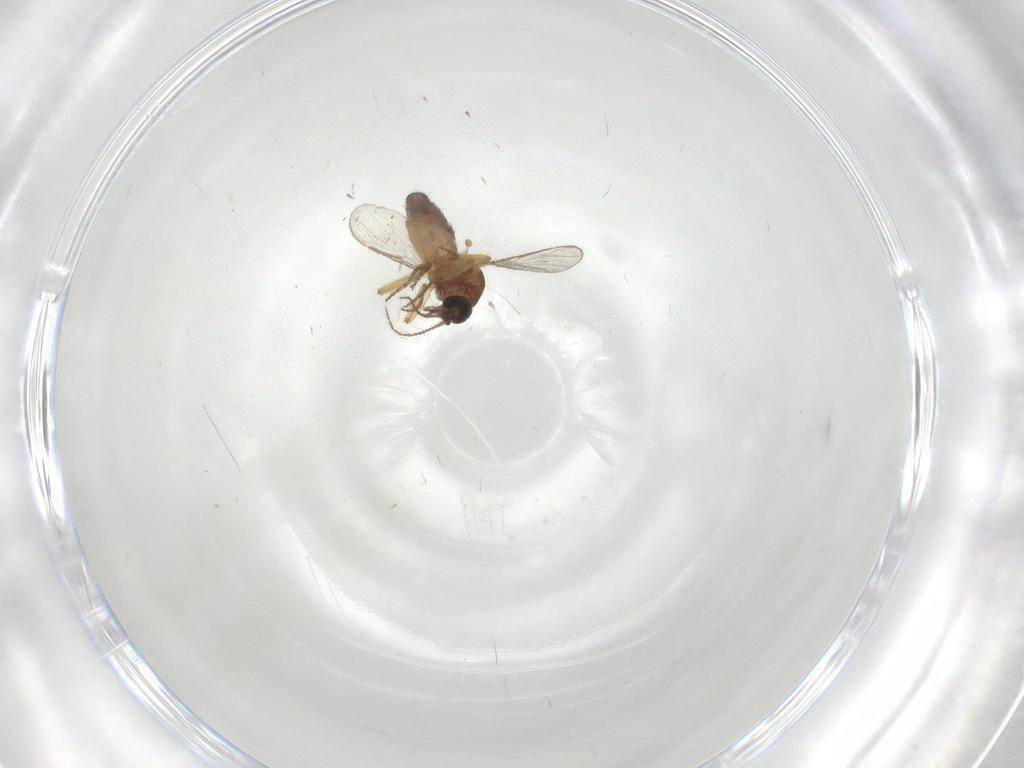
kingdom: Animalia
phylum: Arthropoda
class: Insecta
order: Diptera
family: Ceratopogonidae
